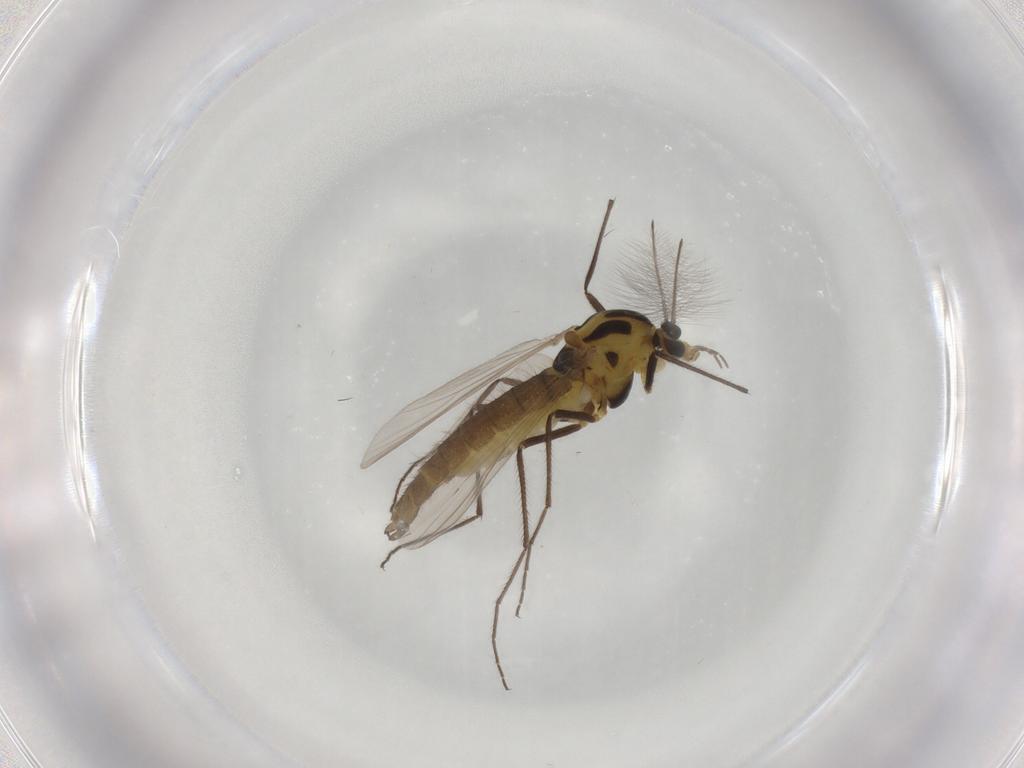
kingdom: Animalia
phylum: Arthropoda
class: Insecta
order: Diptera
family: Chironomidae
